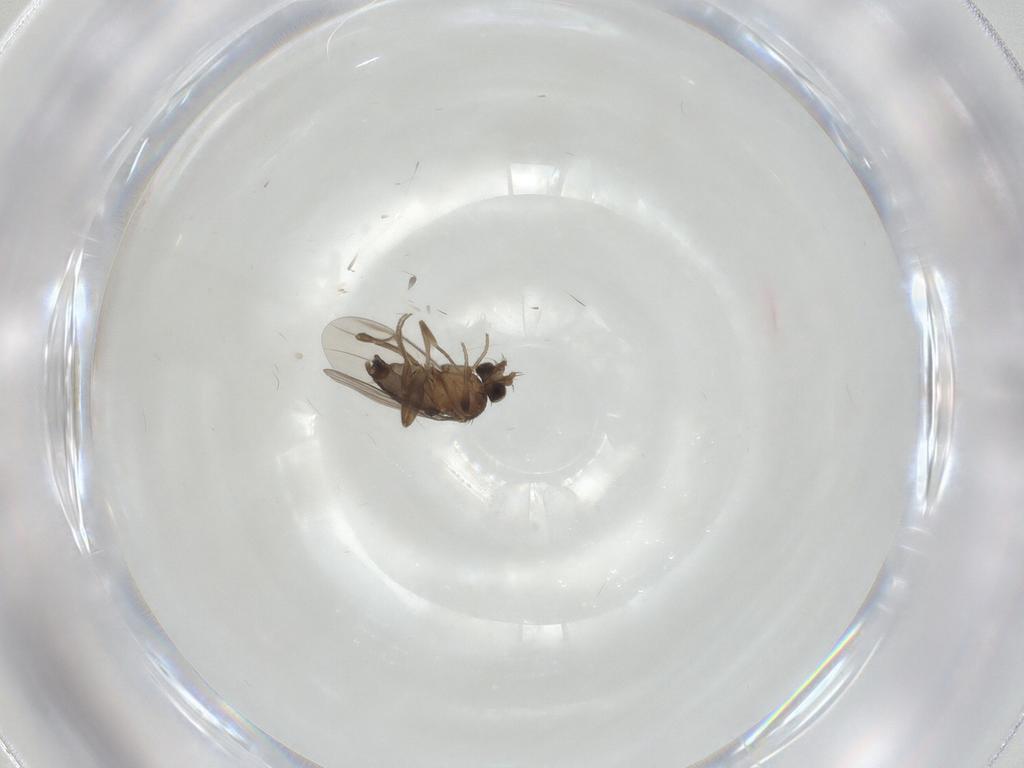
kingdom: Animalia
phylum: Arthropoda
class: Insecta
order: Diptera
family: Phoridae
